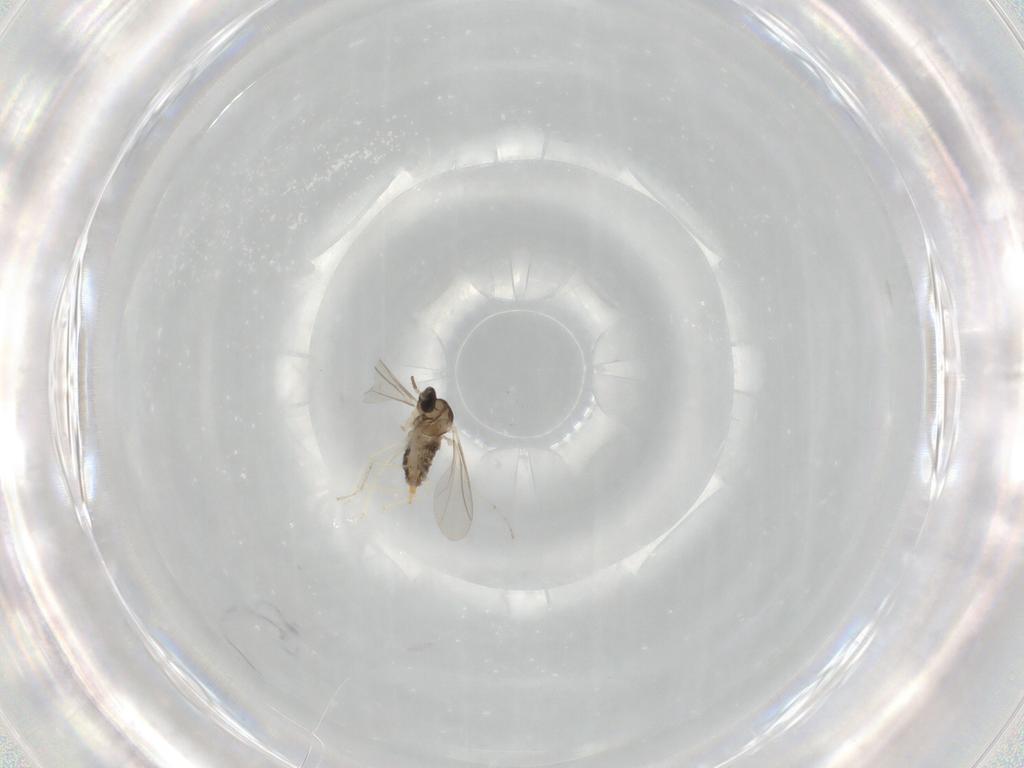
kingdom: Animalia
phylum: Arthropoda
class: Insecta
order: Diptera
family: Cecidomyiidae
